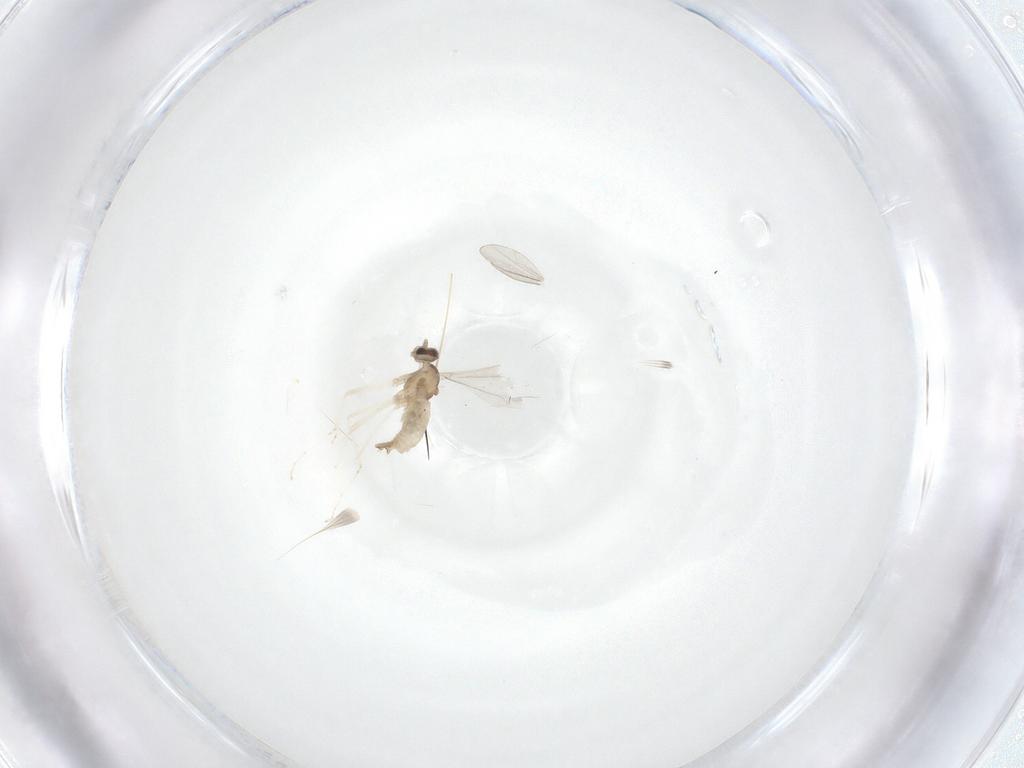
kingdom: Animalia
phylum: Arthropoda
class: Insecta
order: Diptera
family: Cecidomyiidae
